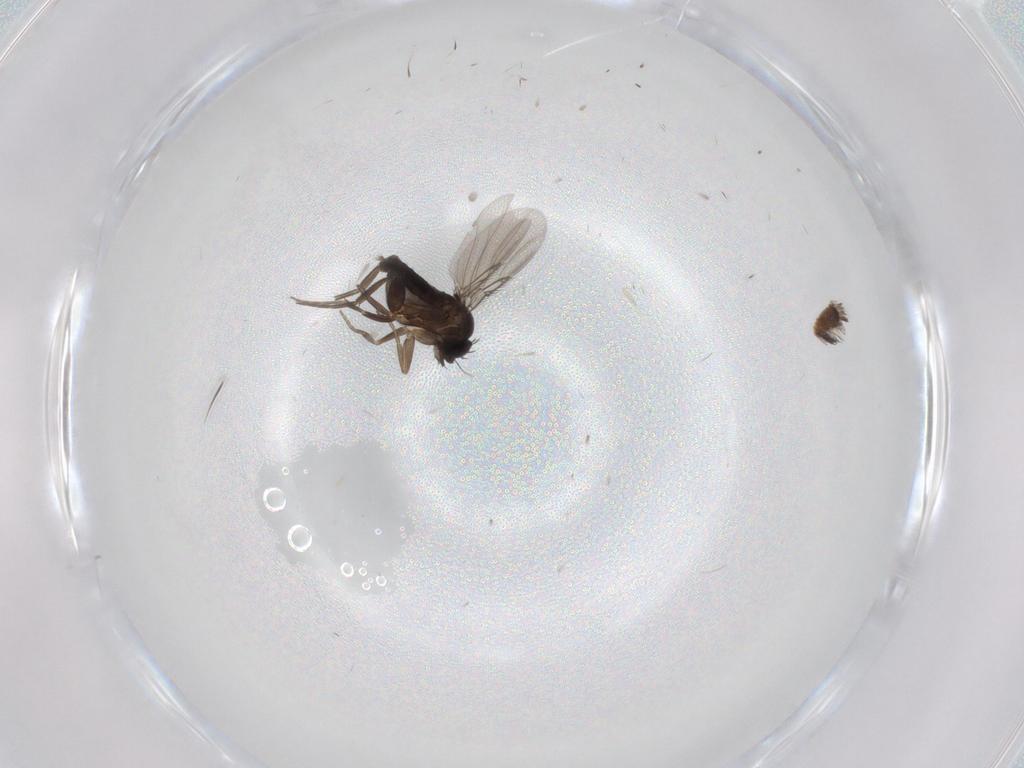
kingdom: Animalia
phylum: Arthropoda
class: Insecta
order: Diptera
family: Phoridae
